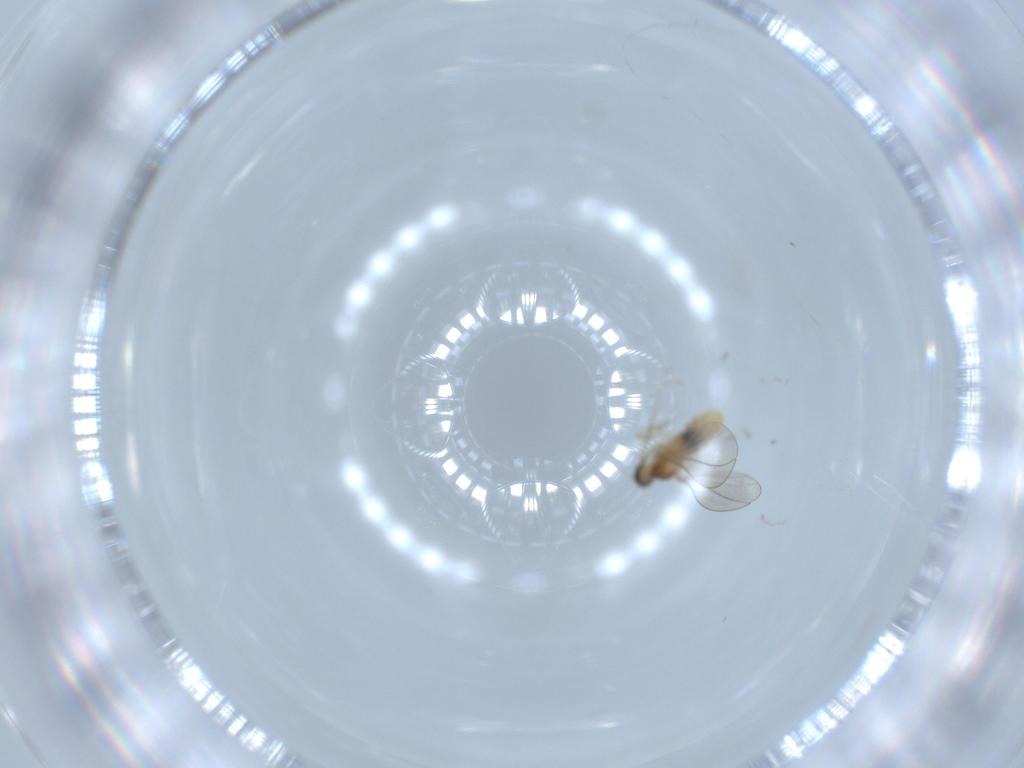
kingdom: Animalia
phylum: Arthropoda
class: Insecta
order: Diptera
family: Cecidomyiidae
